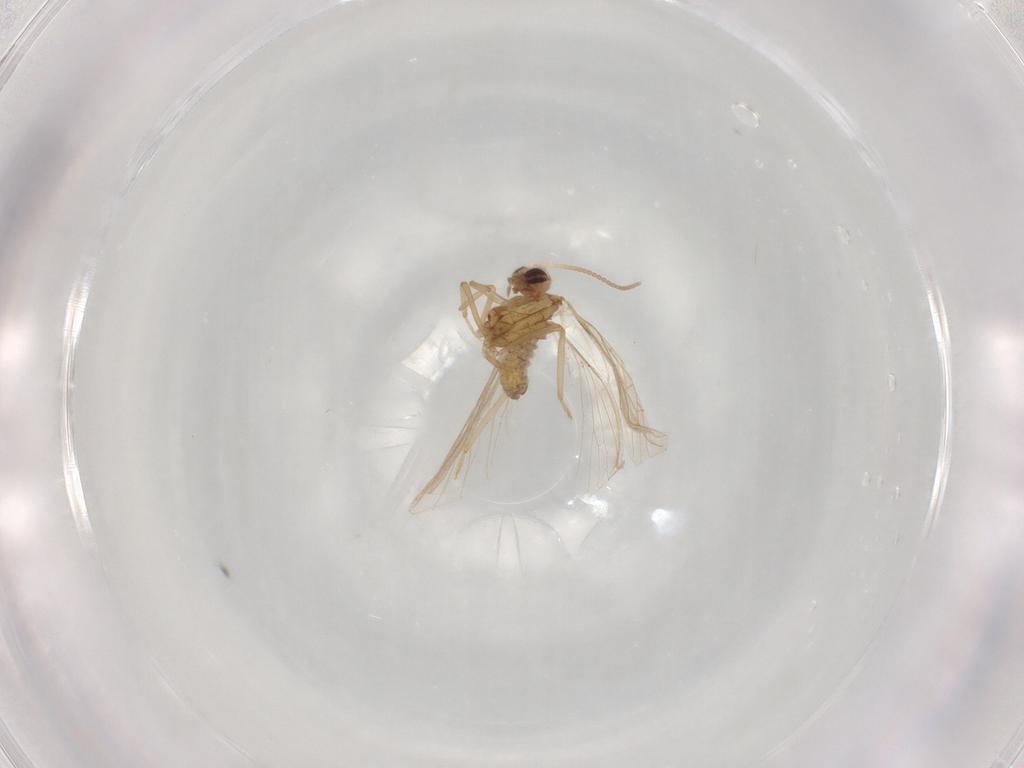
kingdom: Animalia
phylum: Arthropoda
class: Insecta
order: Neuroptera
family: Coniopterygidae
